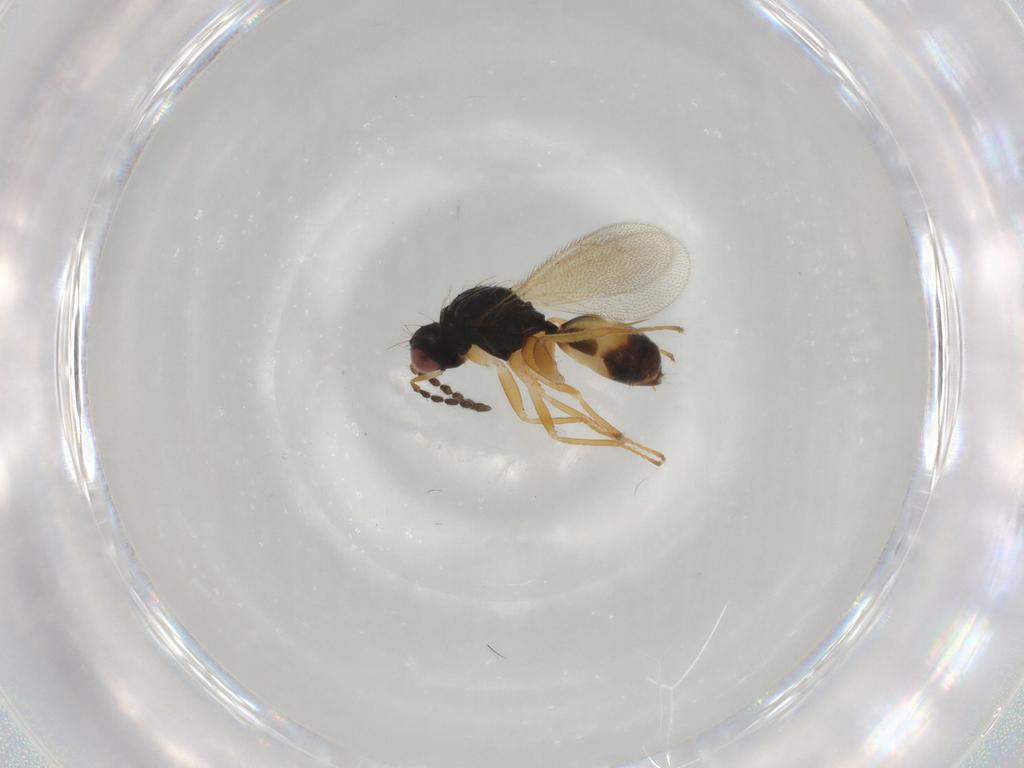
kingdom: Animalia
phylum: Arthropoda
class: Insecta
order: Hymenoptera
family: Eulophidae
